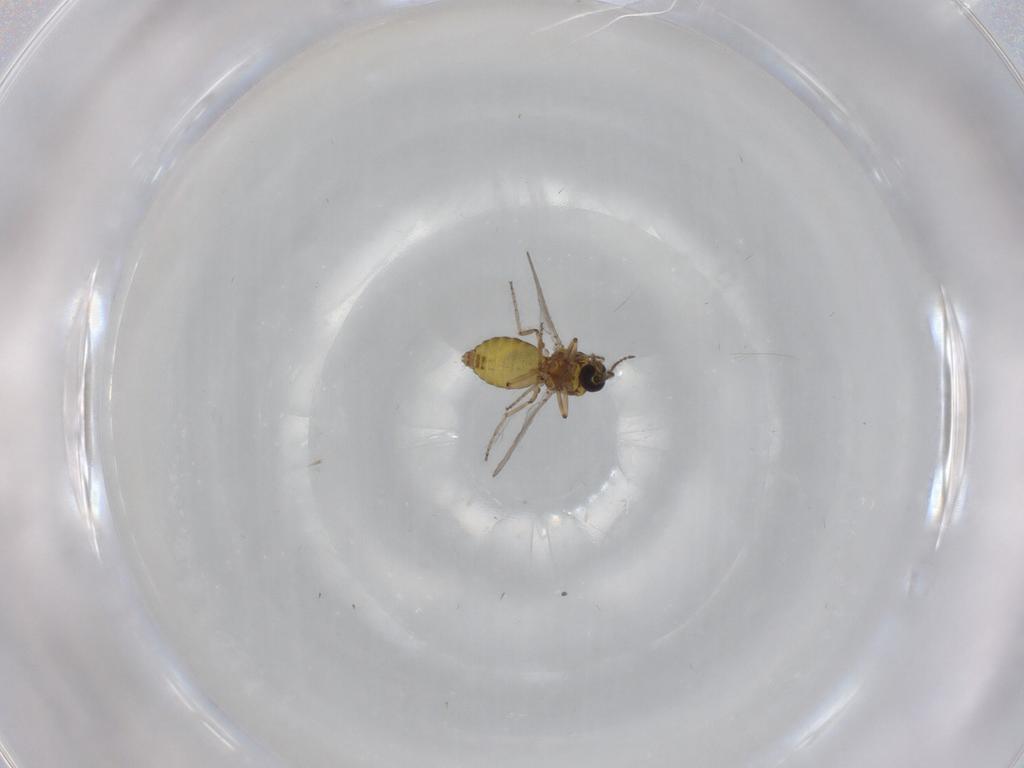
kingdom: Animalia
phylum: Arthropoda
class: Insecta
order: Diptera
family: Ceratopogonidae
